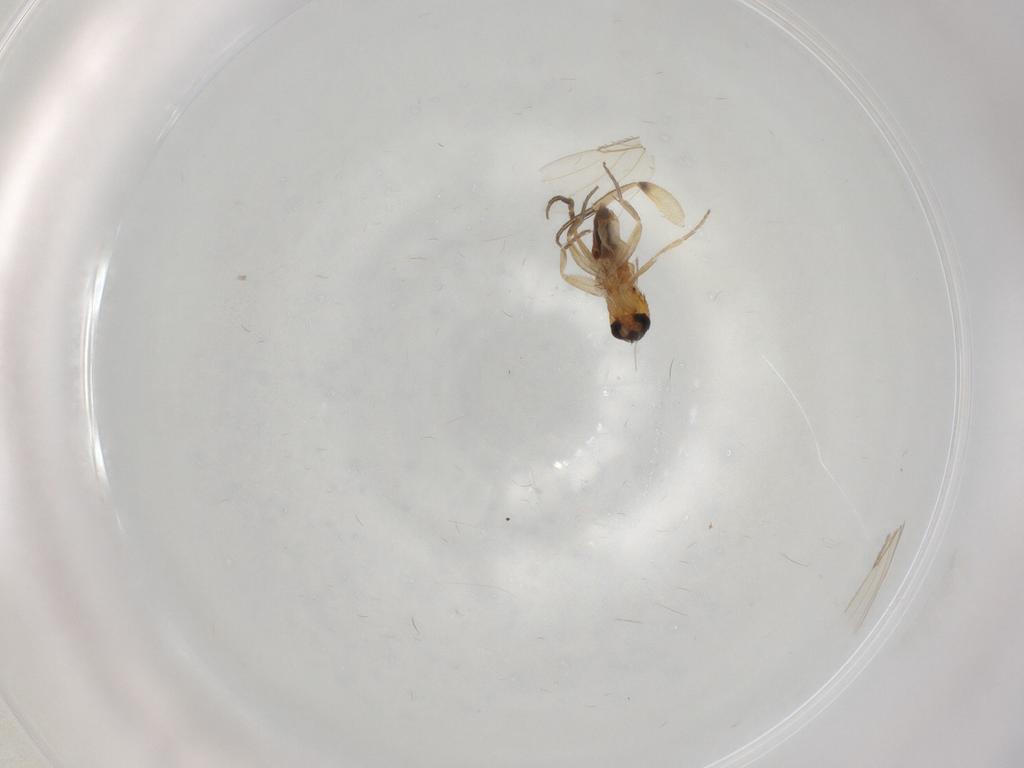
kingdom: Animalia
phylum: Arthropoda
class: Insecta
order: Diptera
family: Phoridae
